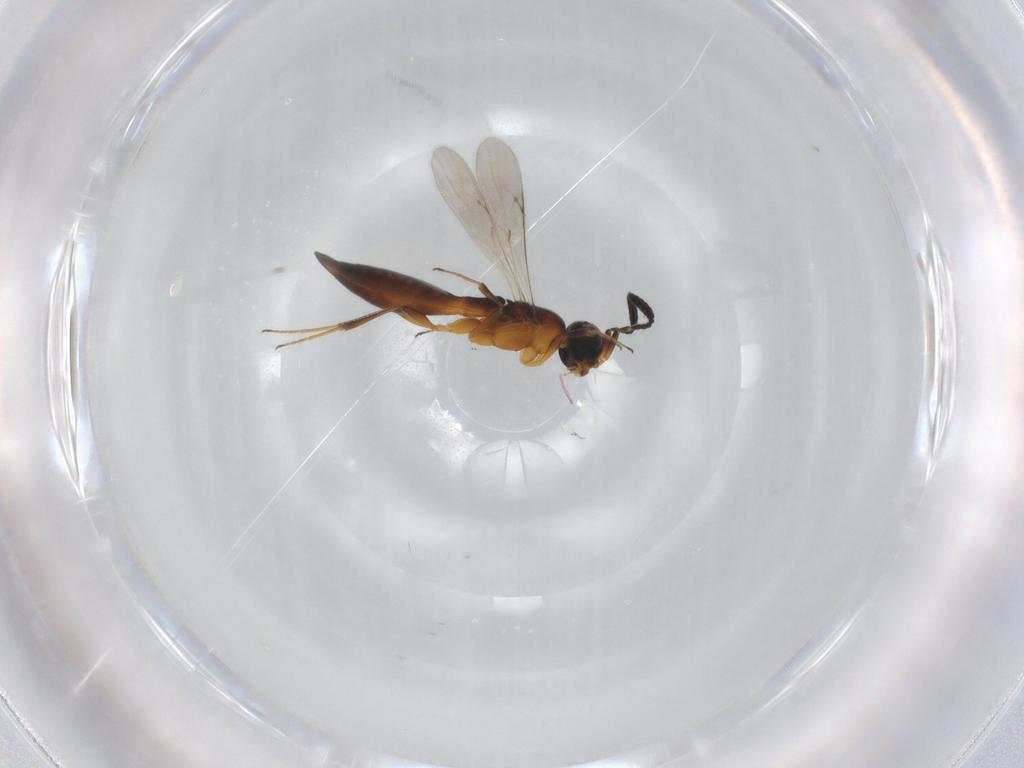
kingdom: Animalia
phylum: Arthropoda
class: Insecta
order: Hymenoptera
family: Scelionidae
